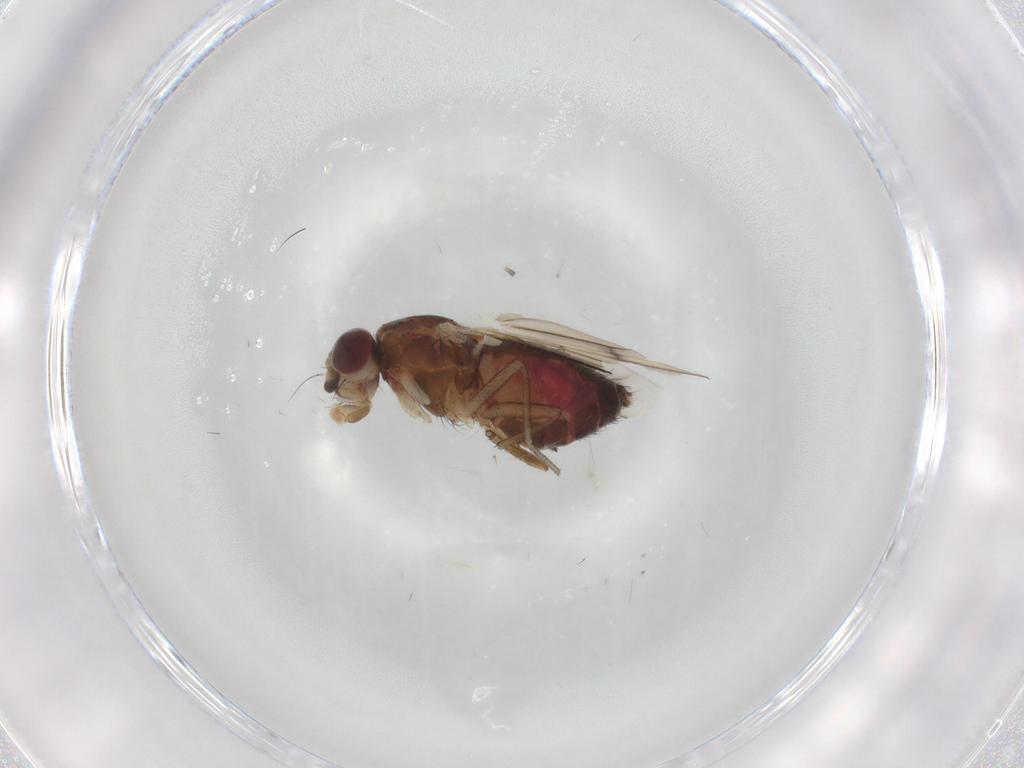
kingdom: Animalia
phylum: Arthropoda
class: Insecta
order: Diptera
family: Heleomyzidae
